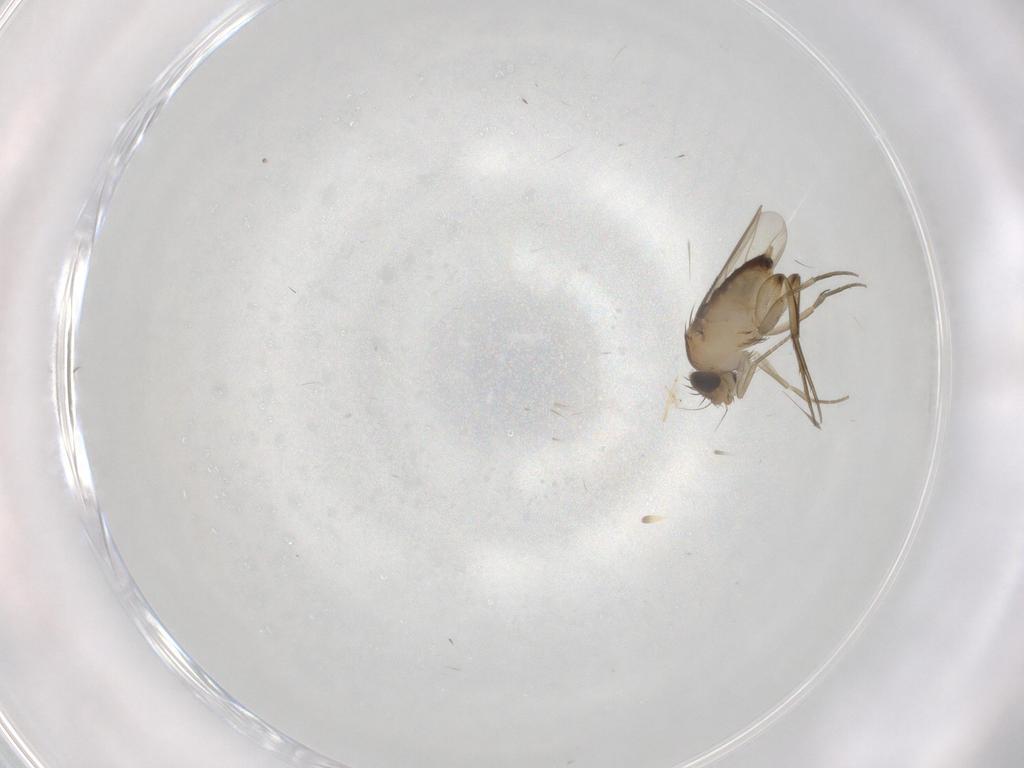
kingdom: Animalia
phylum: Arthropoda
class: Insecta
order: Diptera
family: Phoridae
